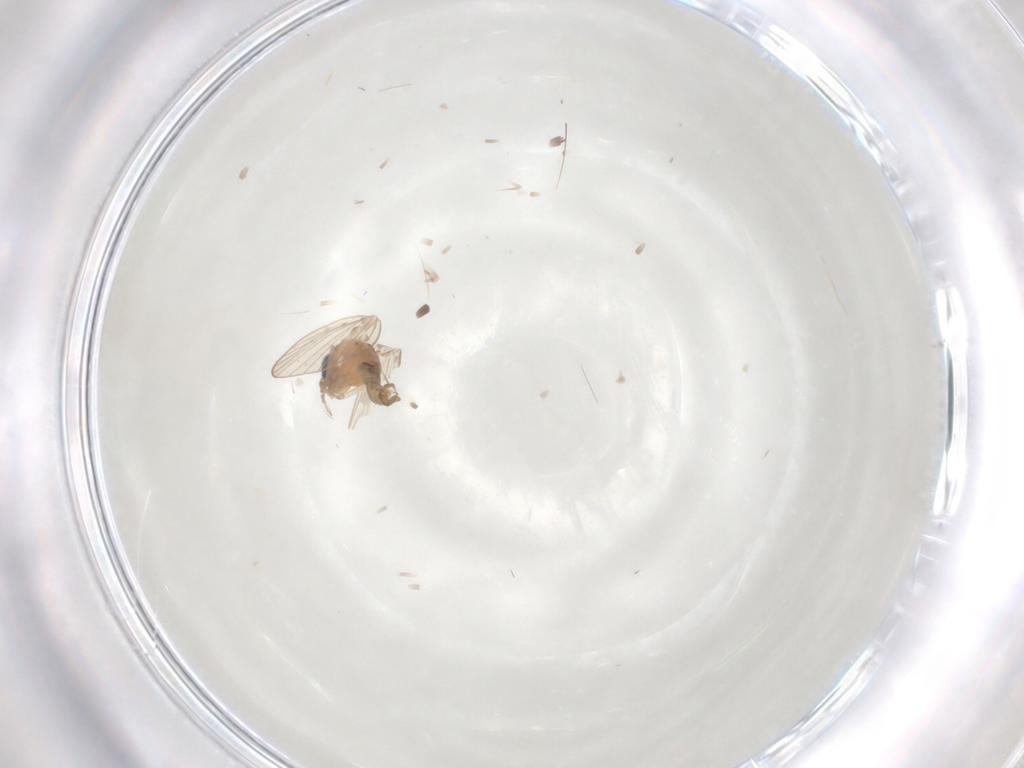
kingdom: Animalia
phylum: Arthropoda
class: Insecta
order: Diptera
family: Psychodidae
